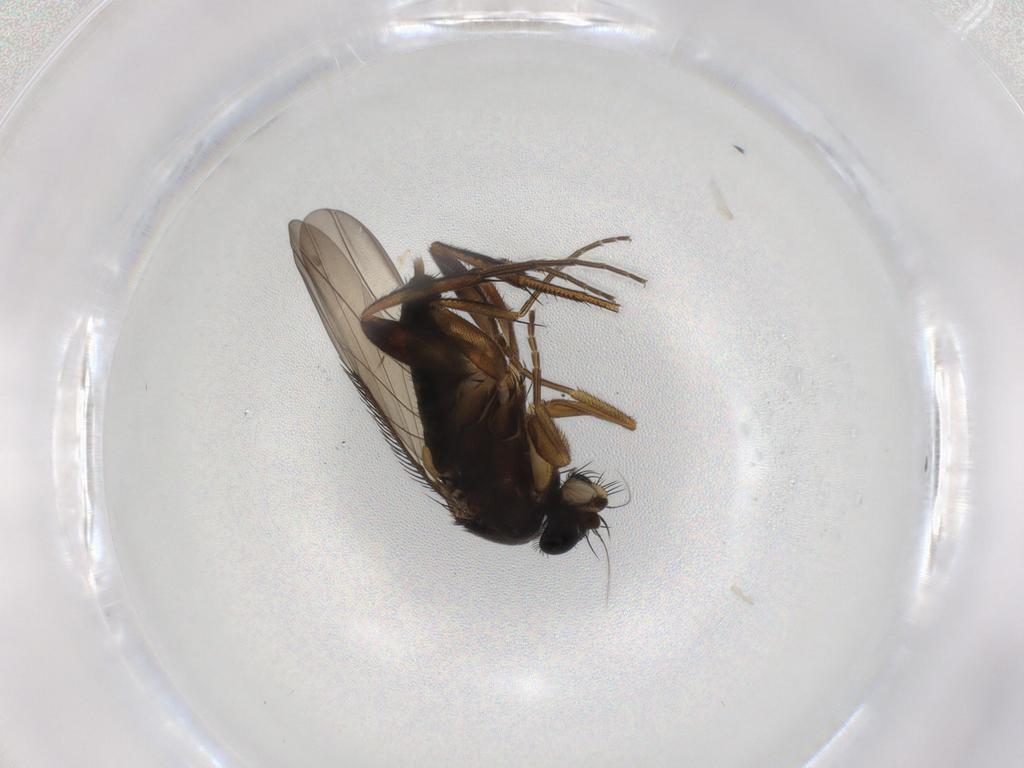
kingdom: Animalia
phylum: Arthropoda
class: Insecta
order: Diptera
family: Phoridae
